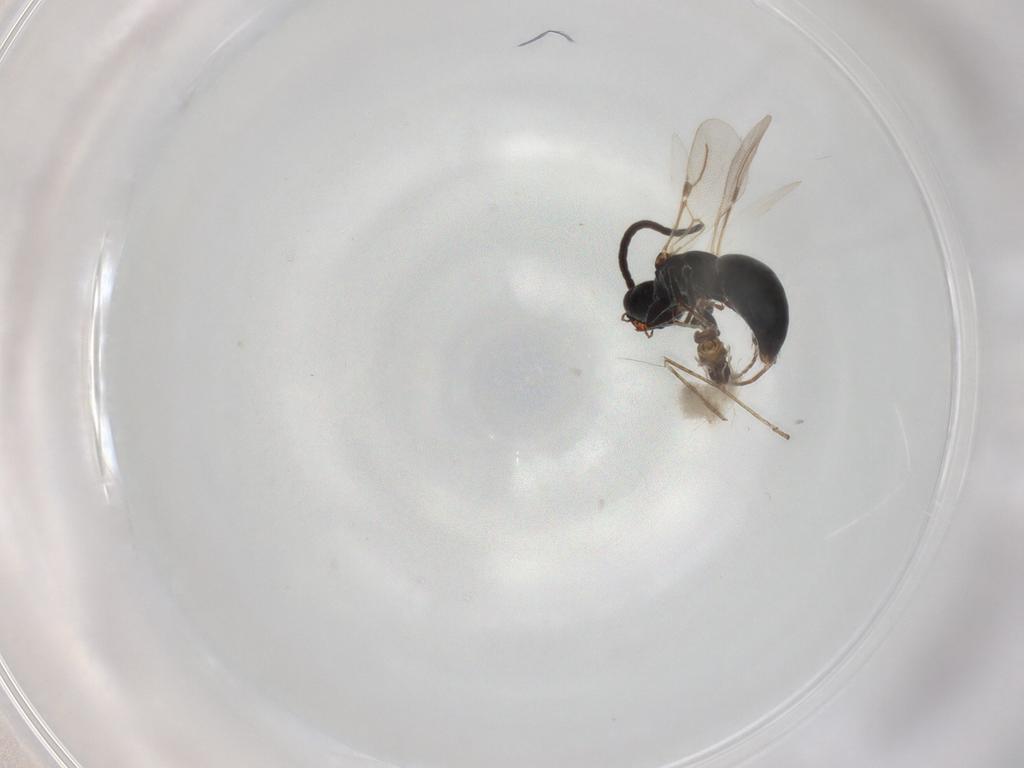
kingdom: Animalia
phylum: Arthropoda
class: Insecta
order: Hymenoptera
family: Bethylidae
